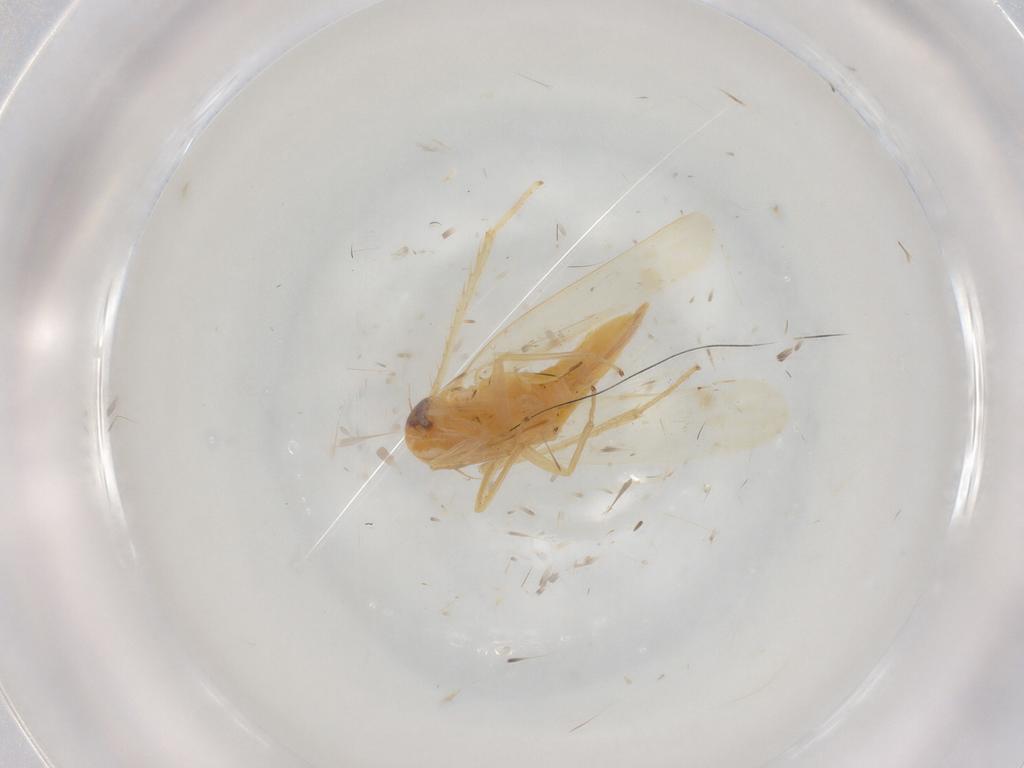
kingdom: Animalia
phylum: Arthropoda
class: Insecta
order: Hemiptera
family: Cicadellidae
